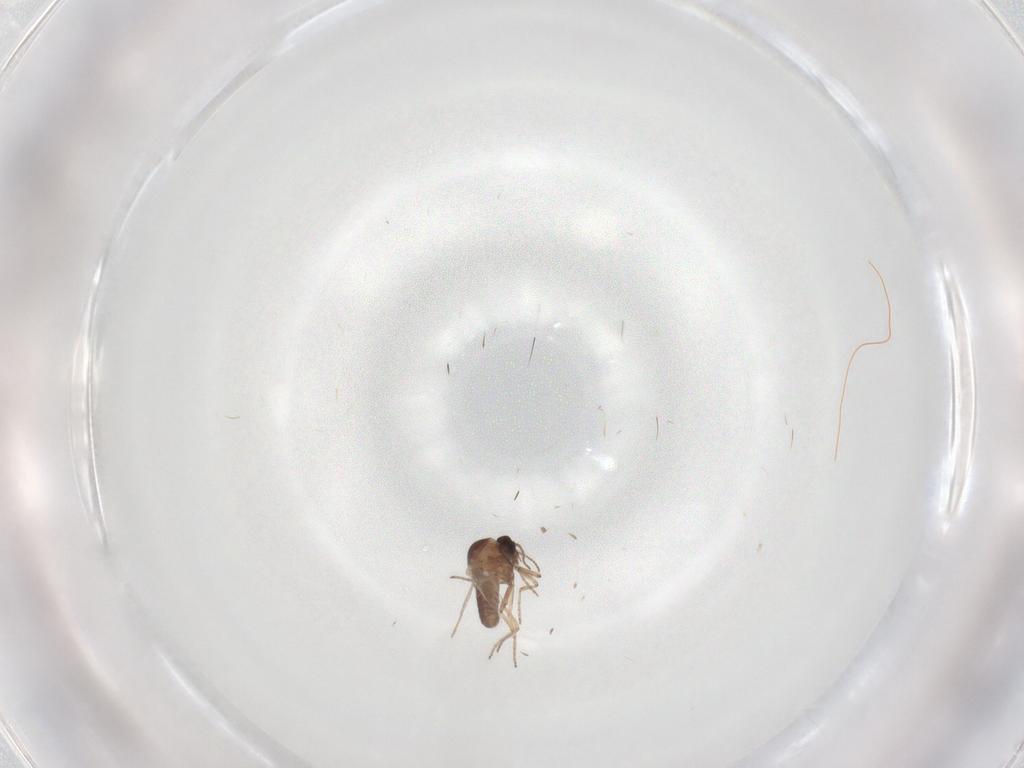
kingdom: Animalia
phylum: Arthropoda
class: Insecta
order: Diptera
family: Ceratopogonidae
